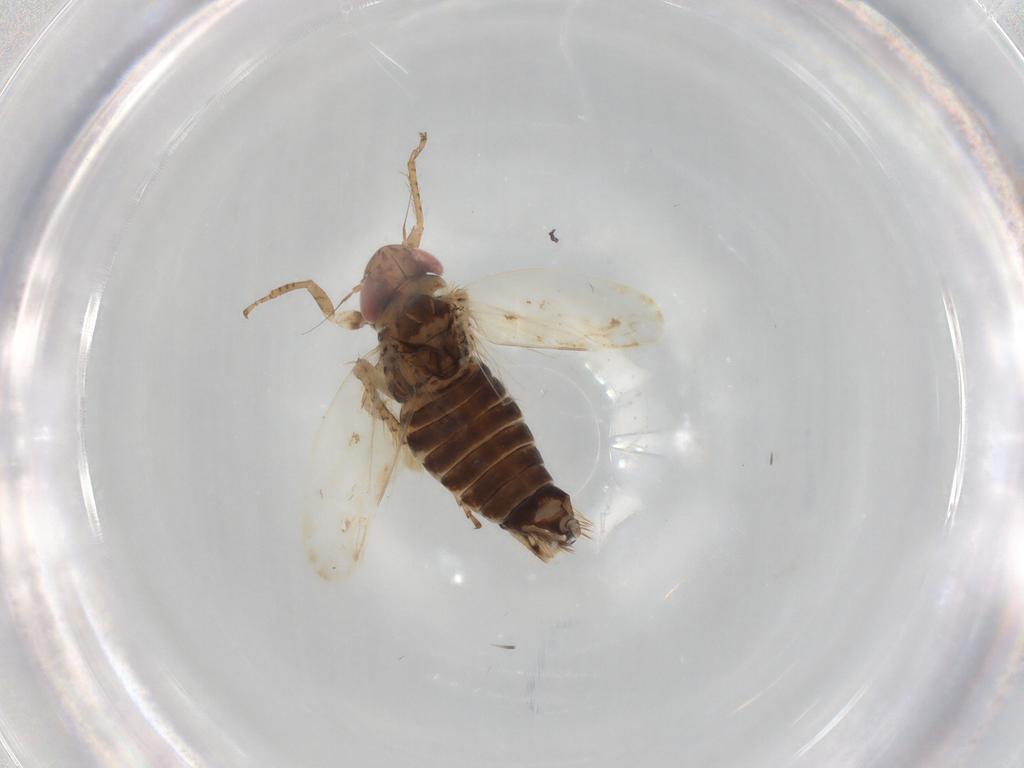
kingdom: Animalia
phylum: Arthropoda
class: Insecta
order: Hemiptera
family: Cicadellidae
